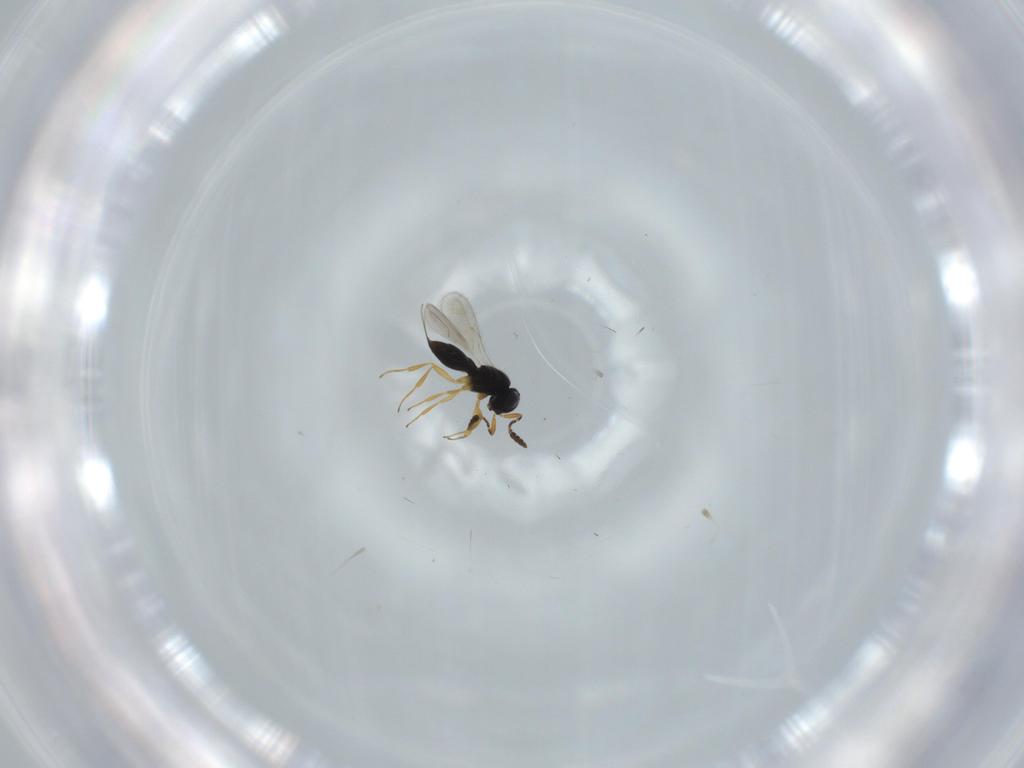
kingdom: Animalia
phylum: Arthropoda
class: Insecta
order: Hymenoptera
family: Scelionidae
